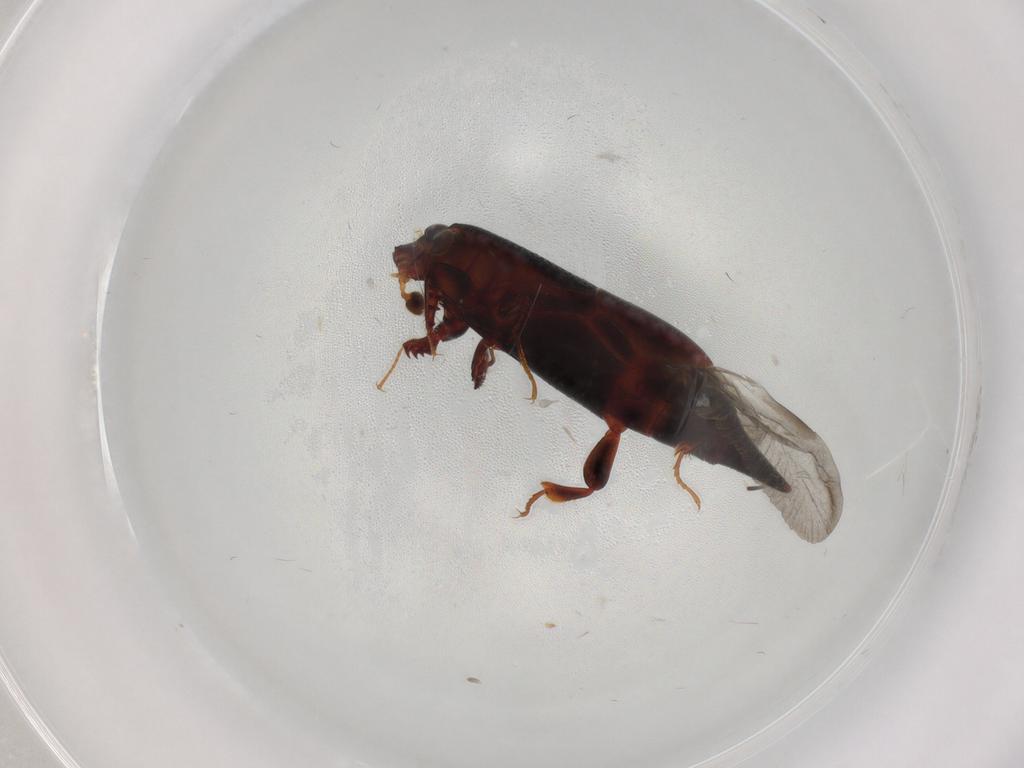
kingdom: Animalia
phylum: Arthropoda
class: Insecta
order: Coleoptera
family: Histeridae
